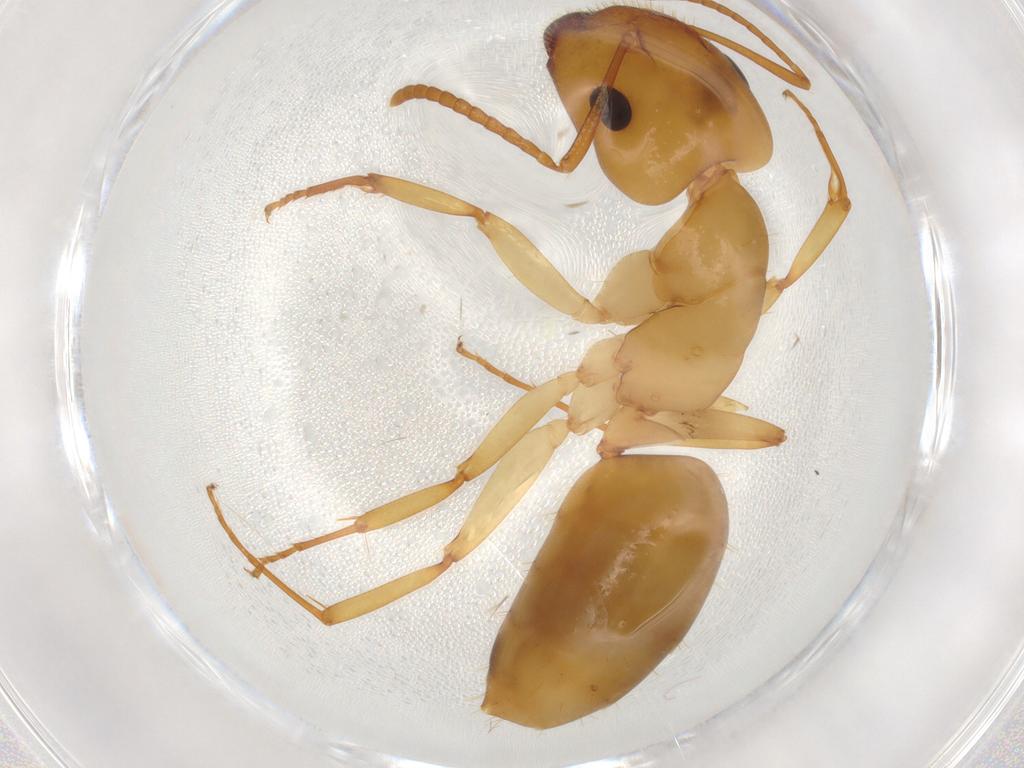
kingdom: Animalia
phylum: Arthropoda
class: Insecta
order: Hymenoptera
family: Formicidae
